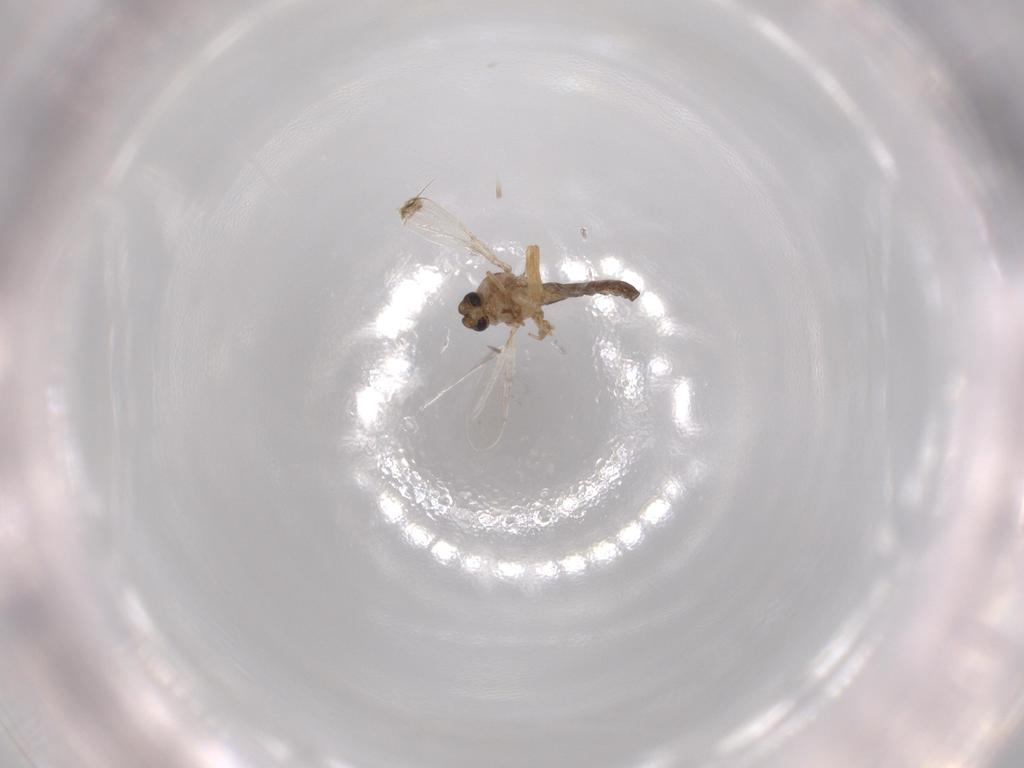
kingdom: Animalia
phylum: Arthropoda
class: Insecta
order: Diptera
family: Ceratopogonidae
